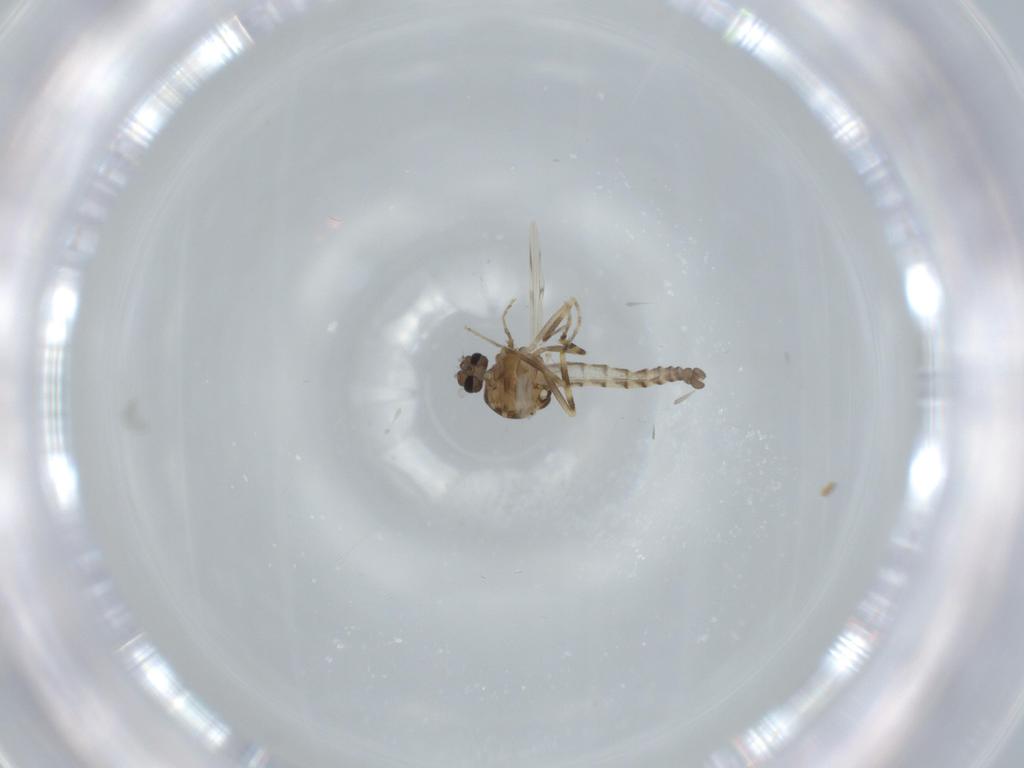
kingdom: Animalia
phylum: Arthropoda
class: Insecta
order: Diptera
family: Ceratopogonidae
